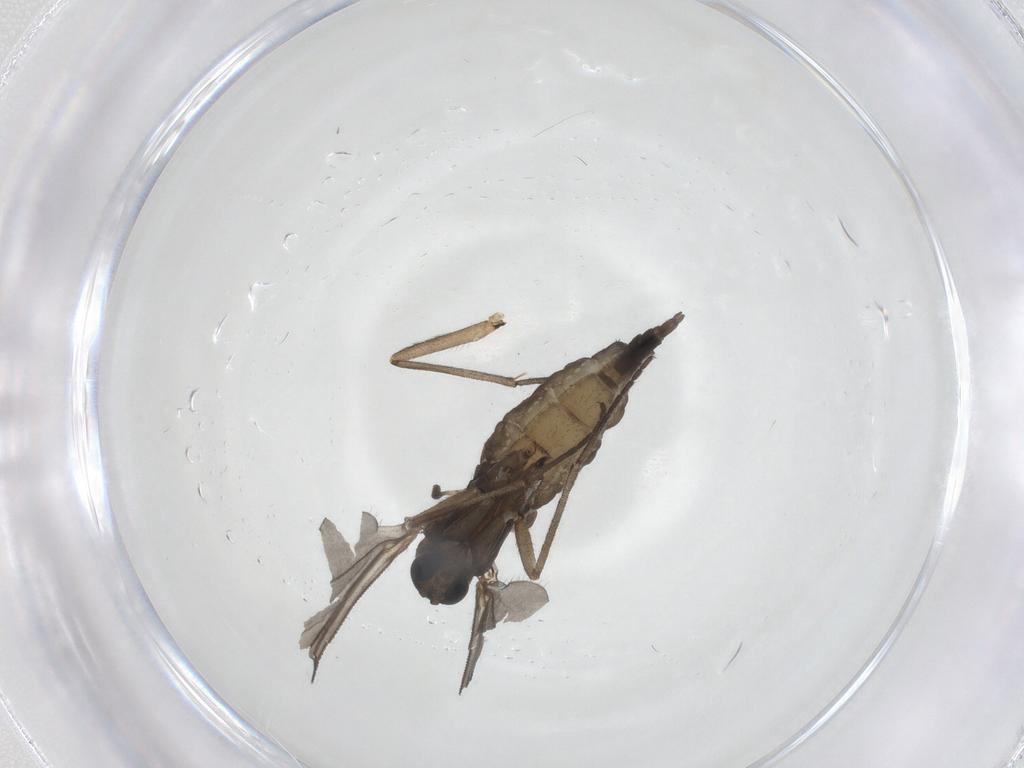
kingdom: Animalia
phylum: Arthropoda
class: Insecta
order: Diptera
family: Sciaridae
